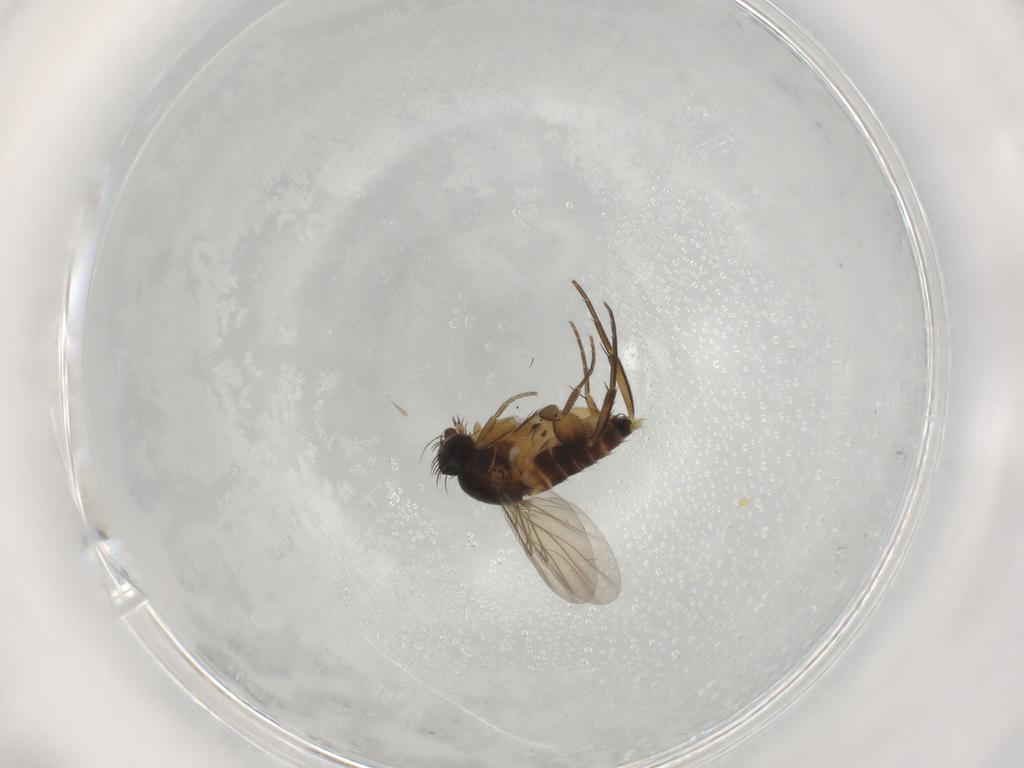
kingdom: Animalia
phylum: Arthropoda
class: Insecta
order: Diptera
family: Phoridae
